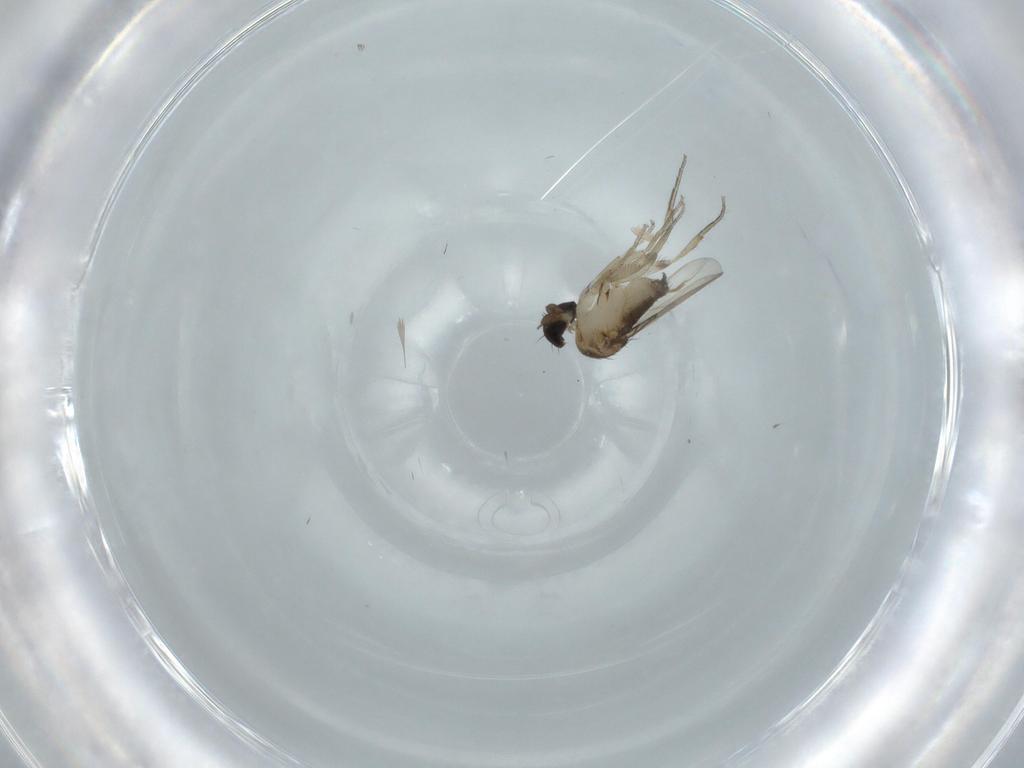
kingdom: Animalia
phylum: Arthropoda
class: Insecta
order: Diptera
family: Phoridae
